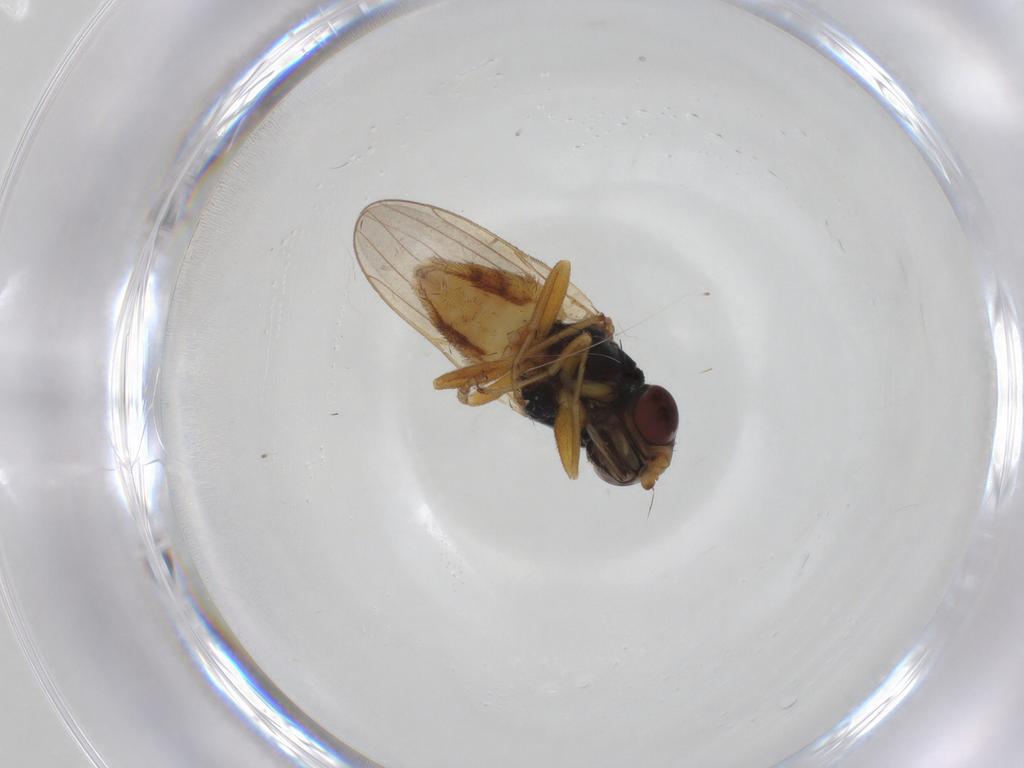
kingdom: Animalia
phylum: Arthropoda
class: Insecta
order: Diptera
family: Chloropidae
